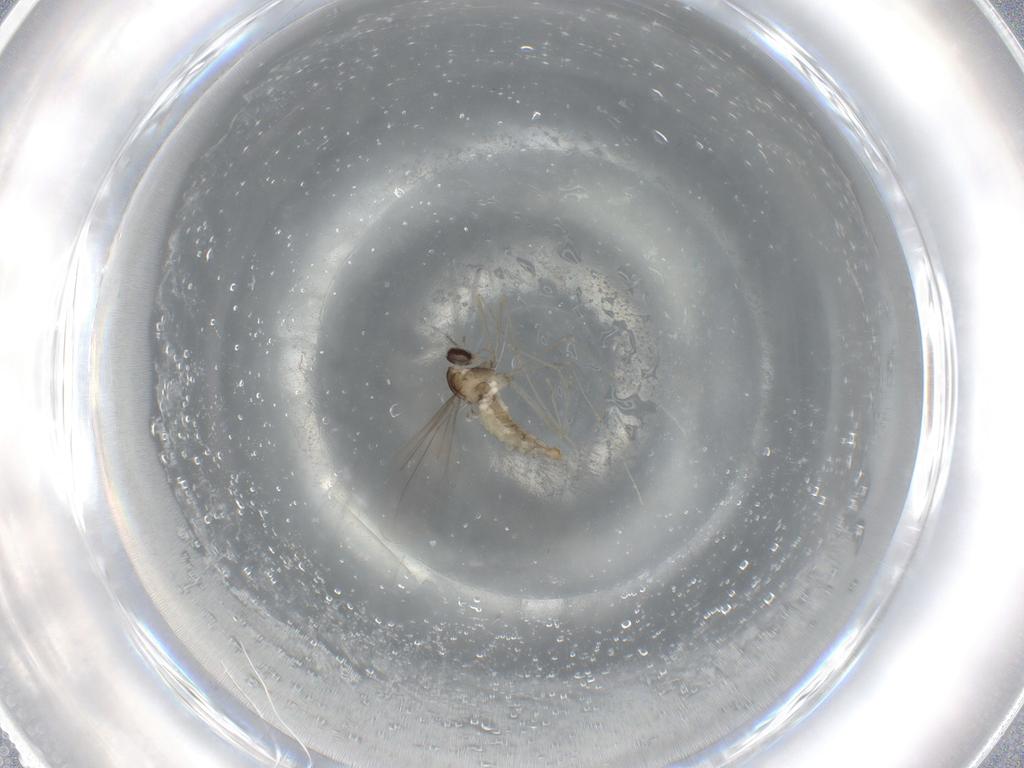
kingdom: Animalia
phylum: Arthropoda
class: Insecta
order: Diptera
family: Cecidomyiidae
